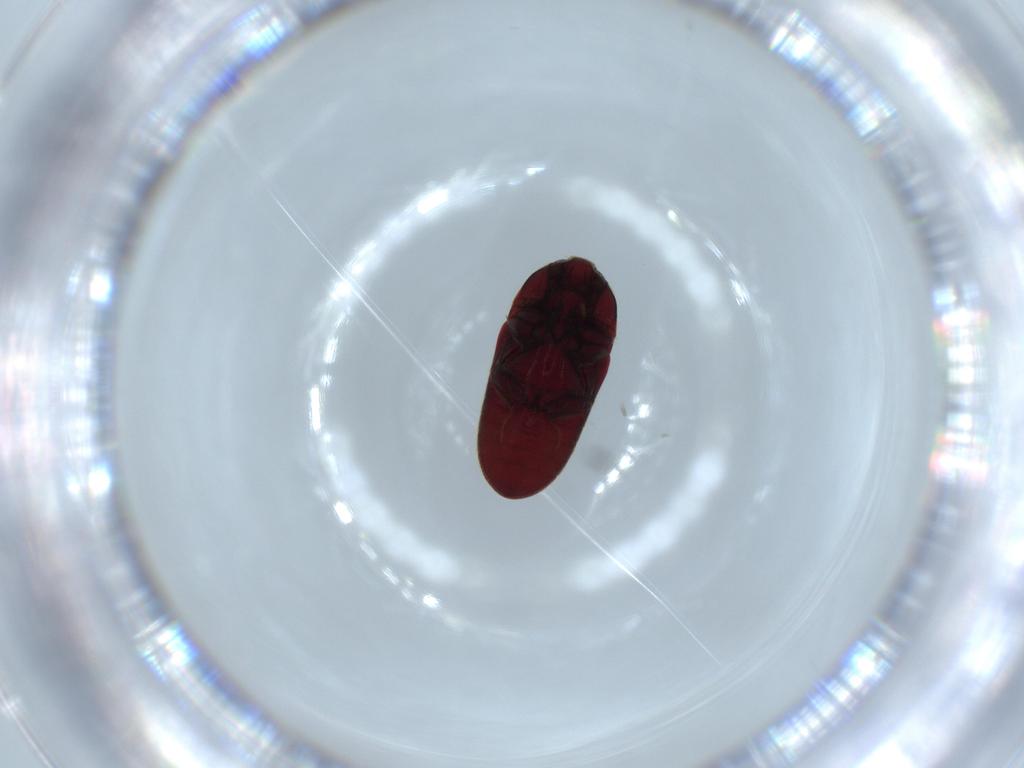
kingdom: Animalia
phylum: Arthropoda
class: Insecta
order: Coleoptera
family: Throscidae
